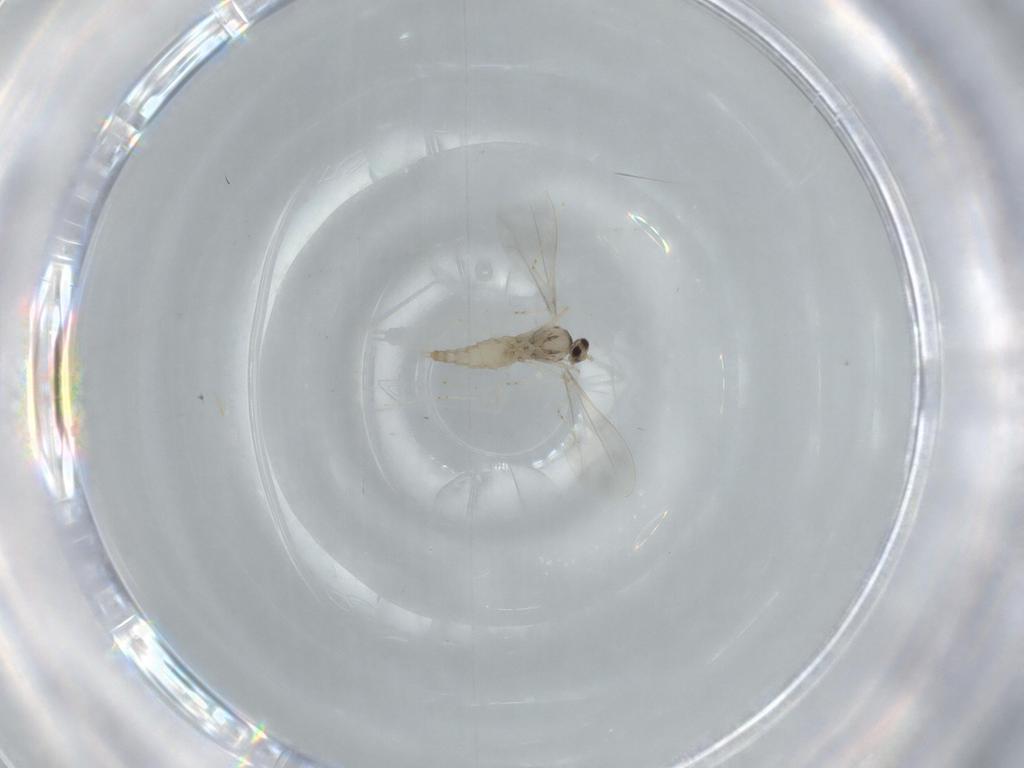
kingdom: Animalia
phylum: Arthropoda
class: Insecta
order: Diptera
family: Cecidomyiidae
